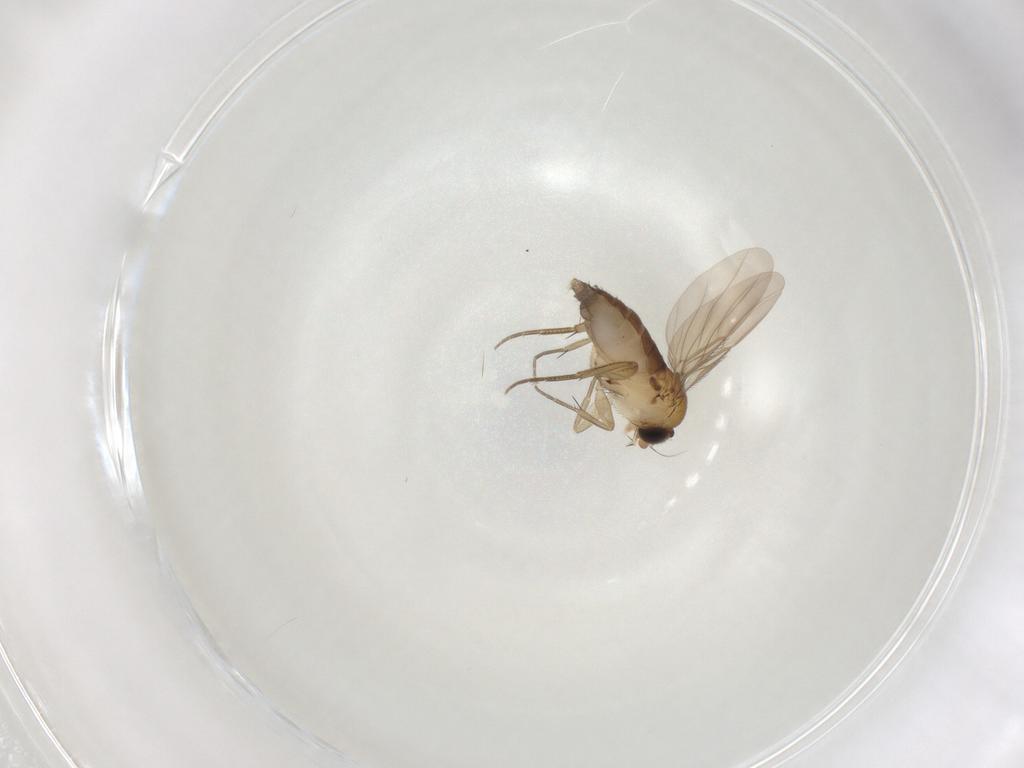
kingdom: Animalia
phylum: Arthropoda
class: Insecta
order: Diptera
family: Phoridae
